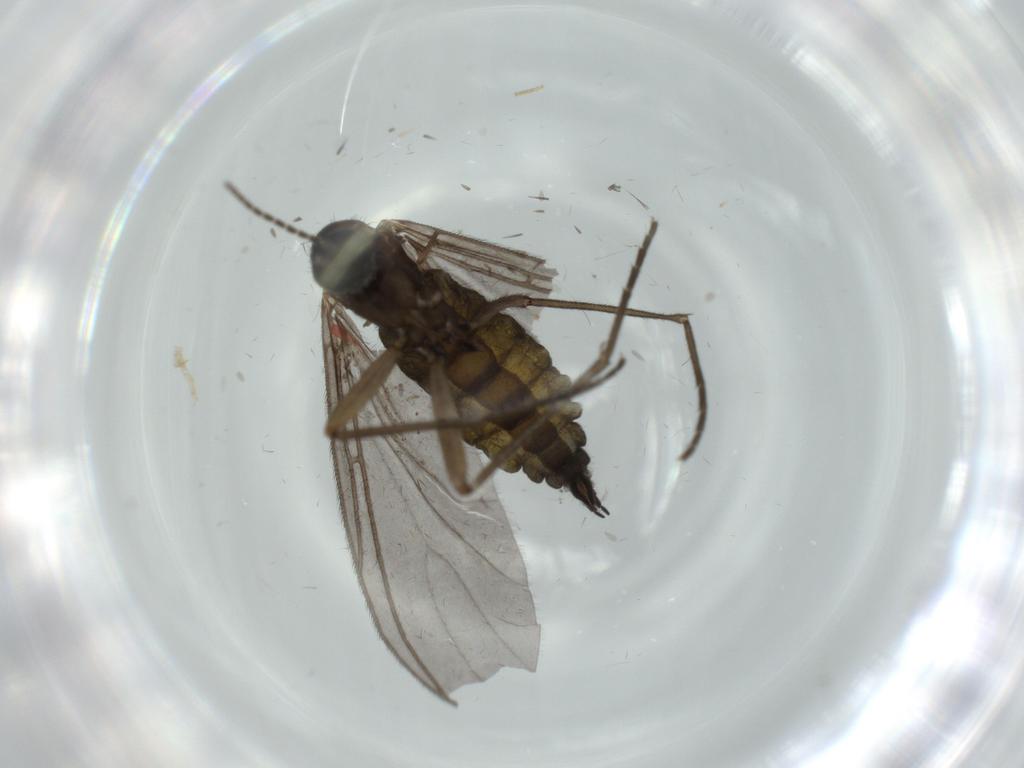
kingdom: Animalia
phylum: Arthropoda
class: Insecta
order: Diptera
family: Sciaridae
